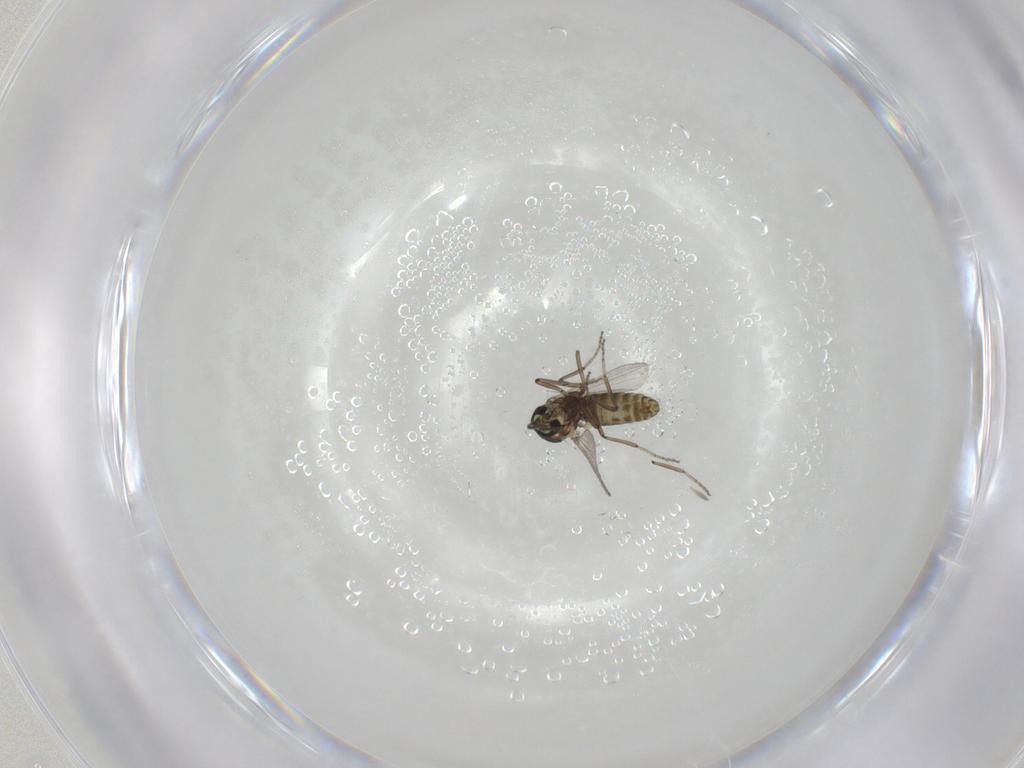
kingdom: Animalia
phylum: Arthropoda
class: Insecta
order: Diptera
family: Ceratopogonidae
